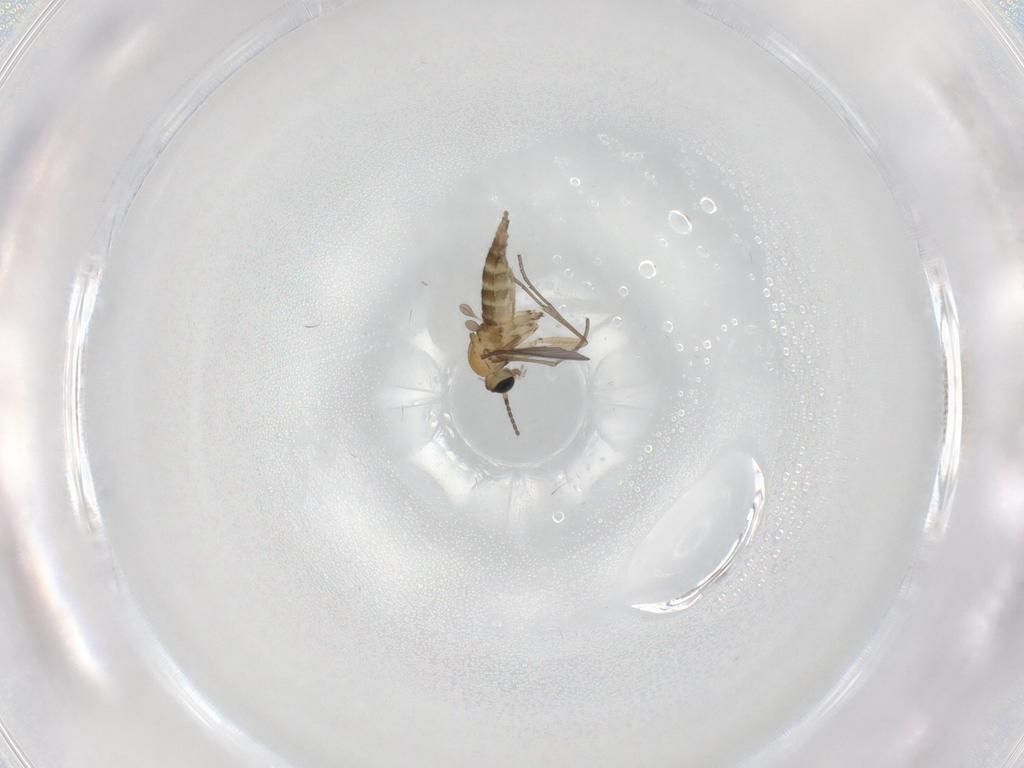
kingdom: Animalia
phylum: Arthropoda
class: Insecta
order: Diptera
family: Sciaridae
